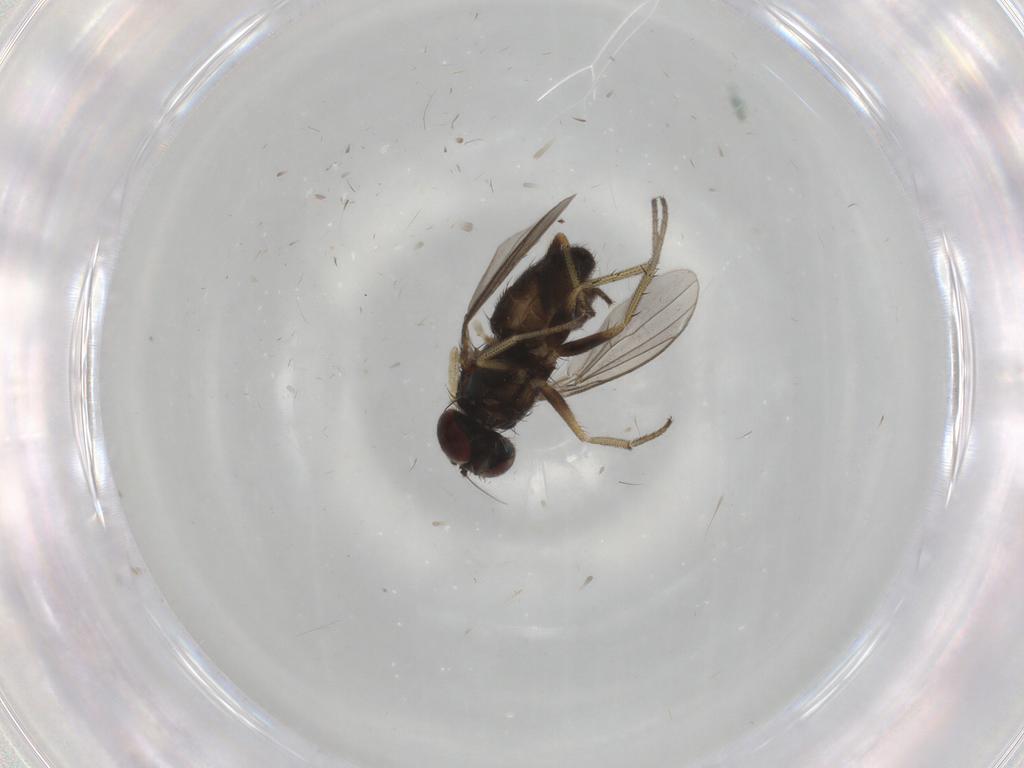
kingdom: Animalia
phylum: Arthropoda
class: Insecta
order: Diptera
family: Chironomidae
